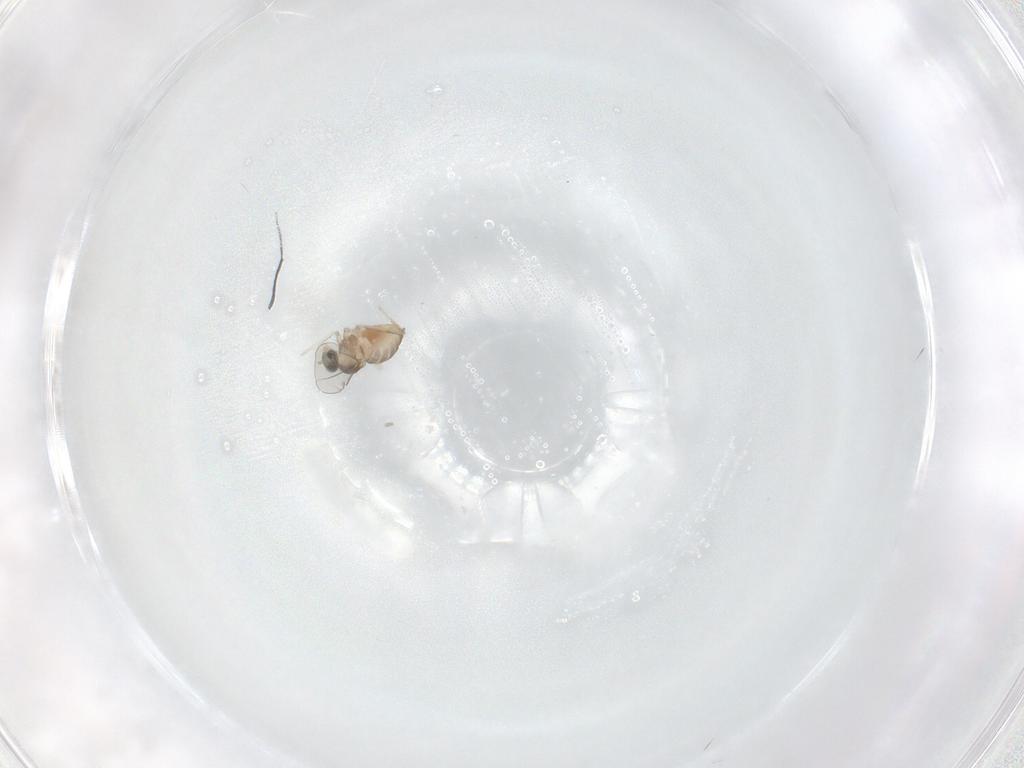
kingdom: Animalia
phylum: Arthropoda
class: Insecta
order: Diptera
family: Cecidomyiidae
